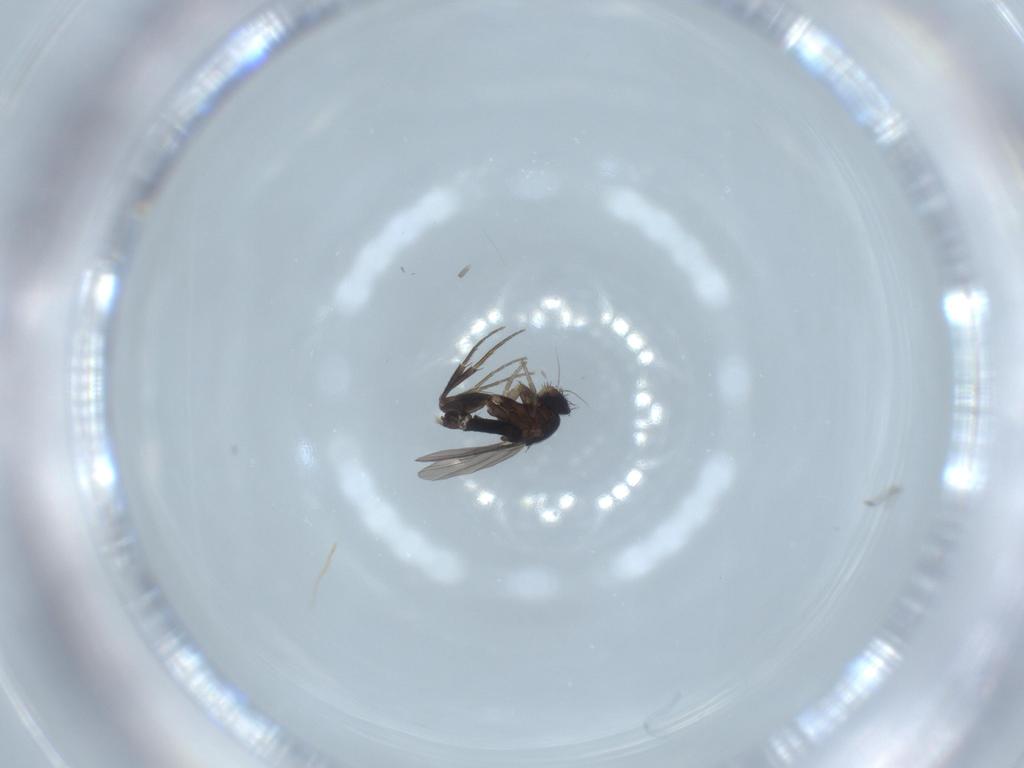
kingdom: Animalia
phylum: Arthropoda
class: Insecta
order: Diptera
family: Phoridae
